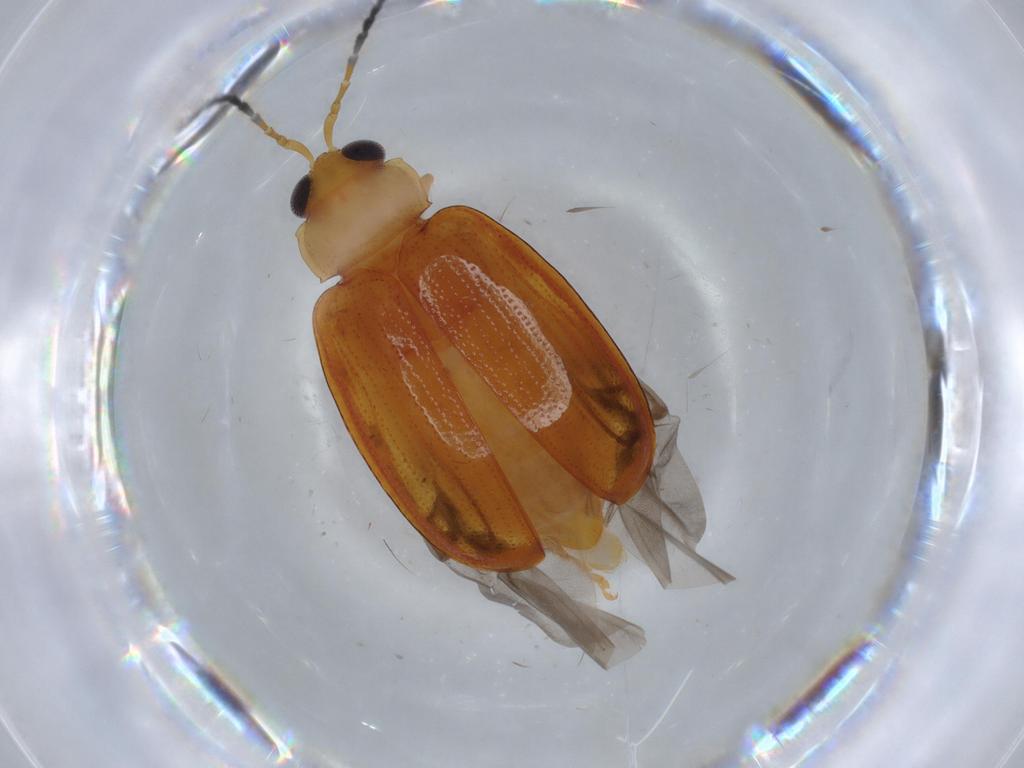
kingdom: Animalia
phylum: Arthropoda
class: Insecta
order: Coleoptera
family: Chrysomelidae
